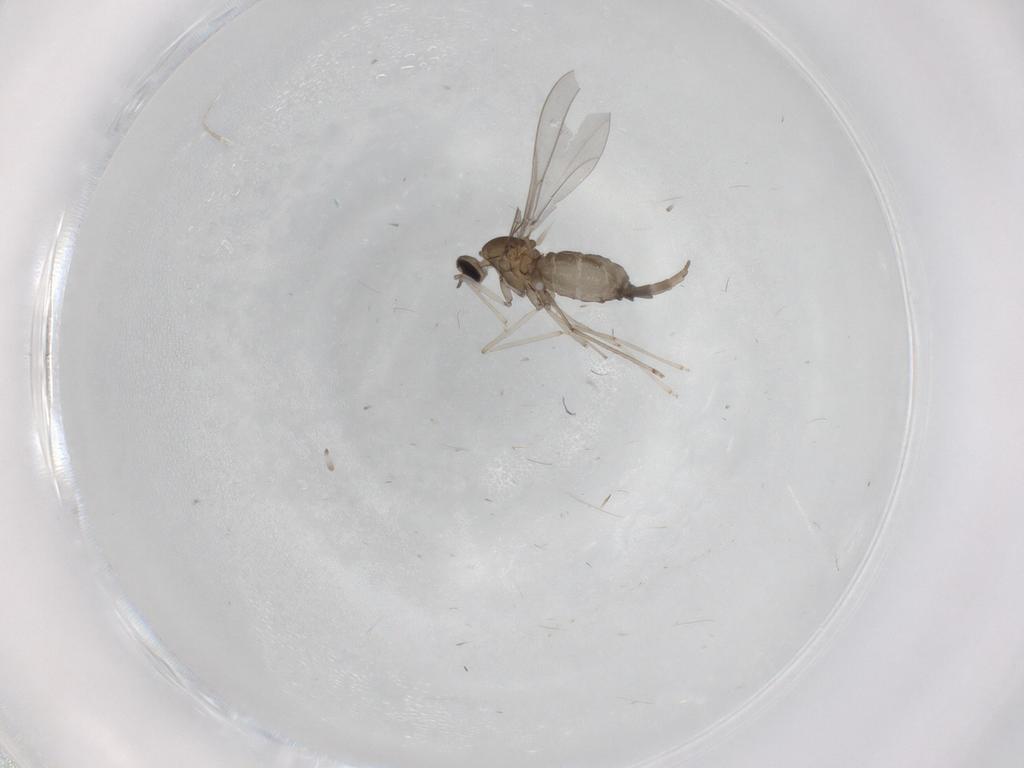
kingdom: Animalia
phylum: Arthropoda
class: Insecta
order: Diptera
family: Cecidomyiidae
